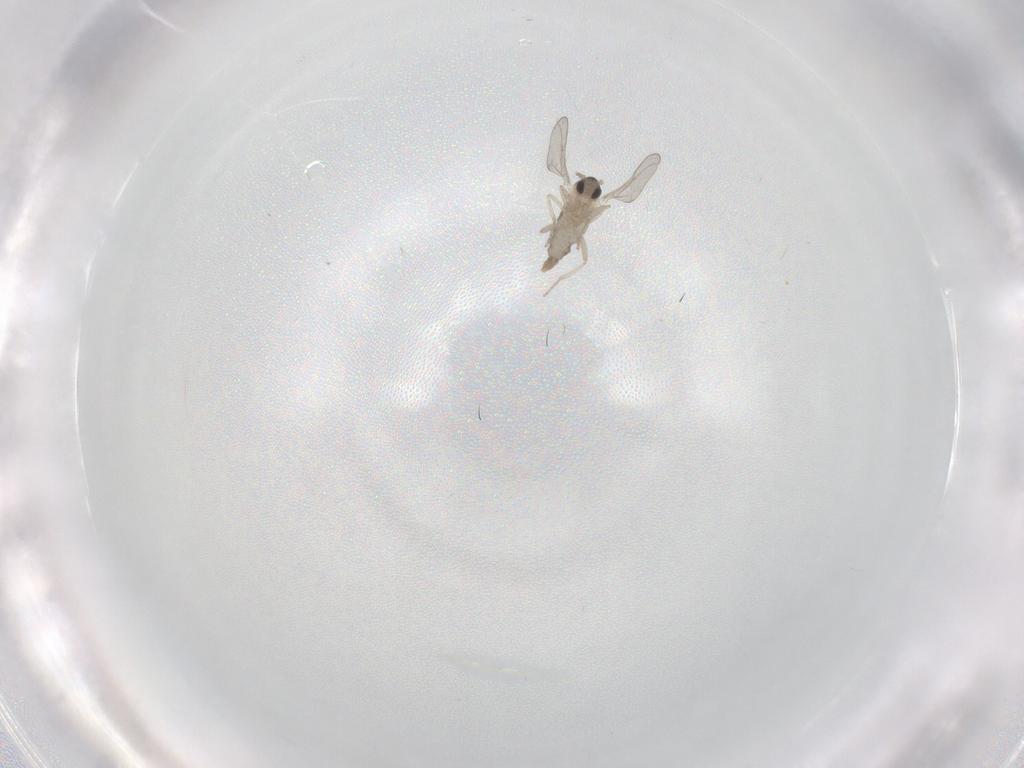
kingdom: Animalia
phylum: Arthropoda
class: Insecta
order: Diptera
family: Cecidomyiidae
